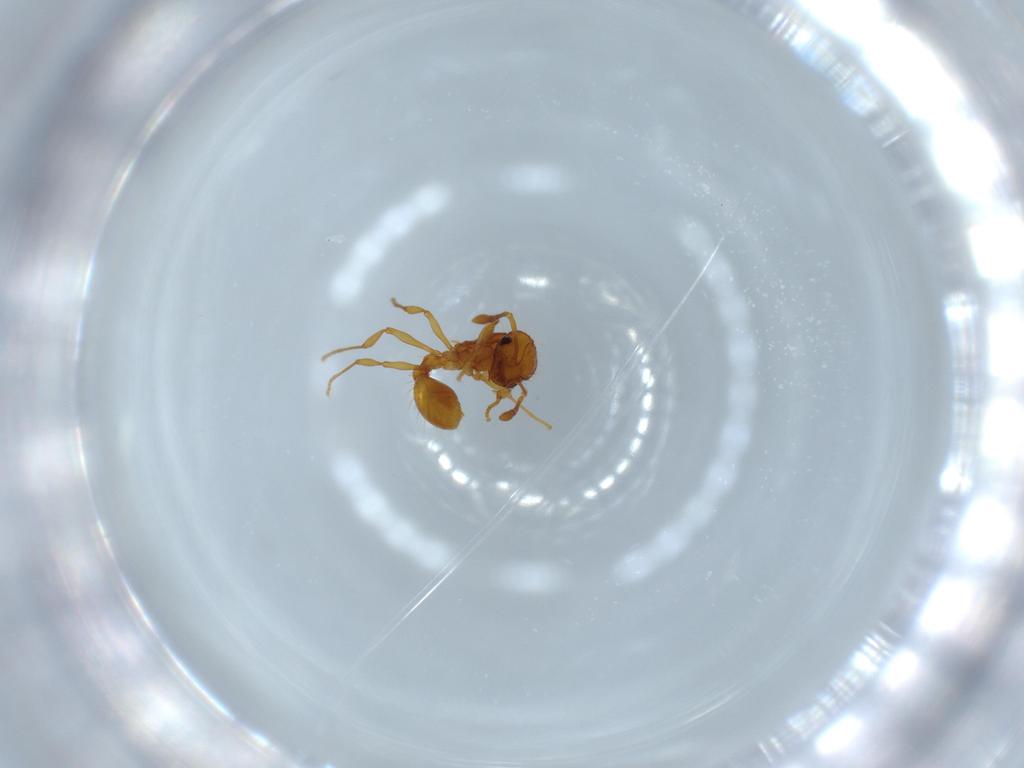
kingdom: Animalia
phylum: Arthropoda
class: Insecta
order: Hymenoptera
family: Formicidae
